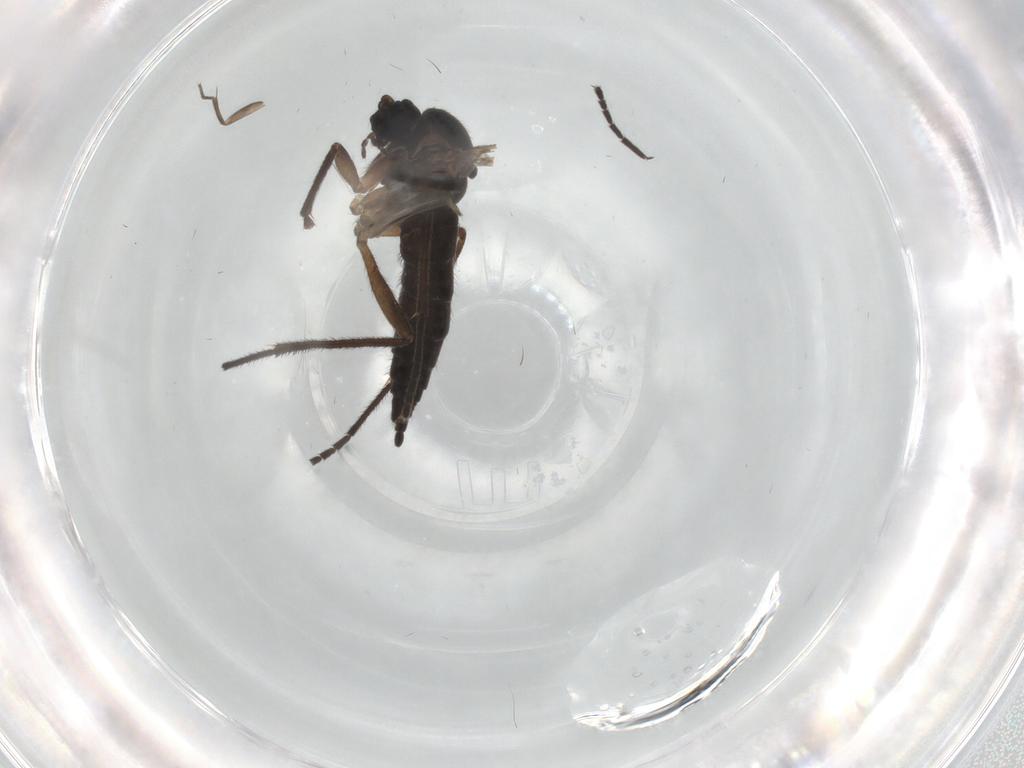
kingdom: Animalia
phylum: Arthropoda
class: Insecta
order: Diptera
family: Sciaridae
